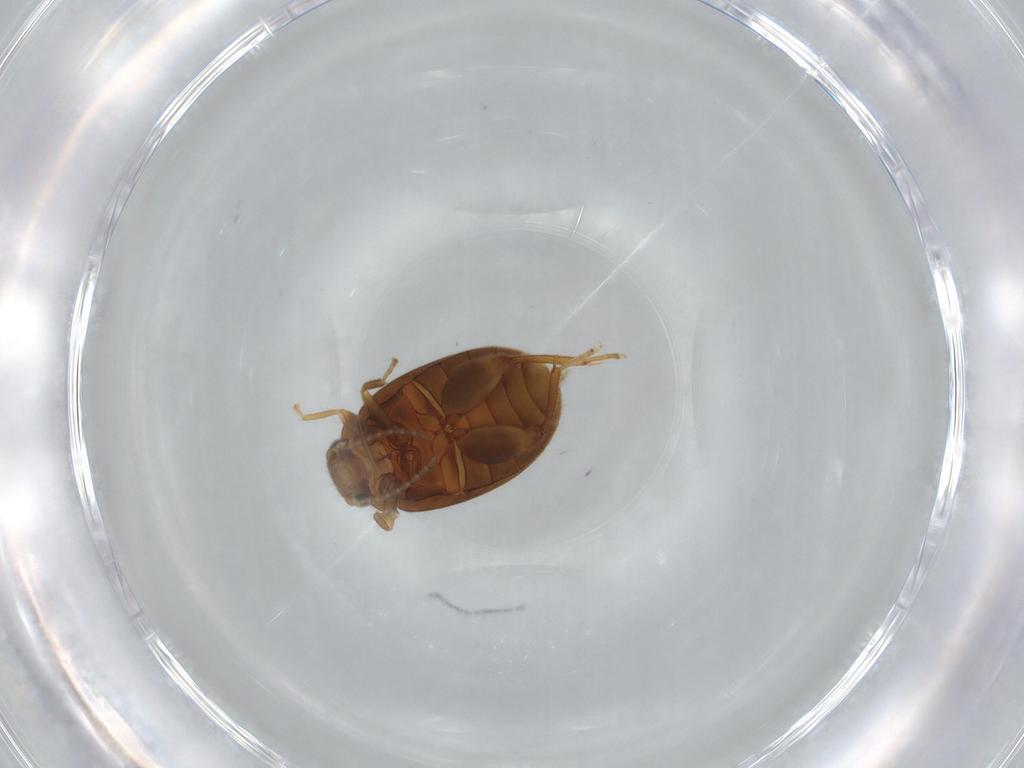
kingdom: Animalia
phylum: Arthropoda
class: Insecta
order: Coleoptera
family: Scirtidae
